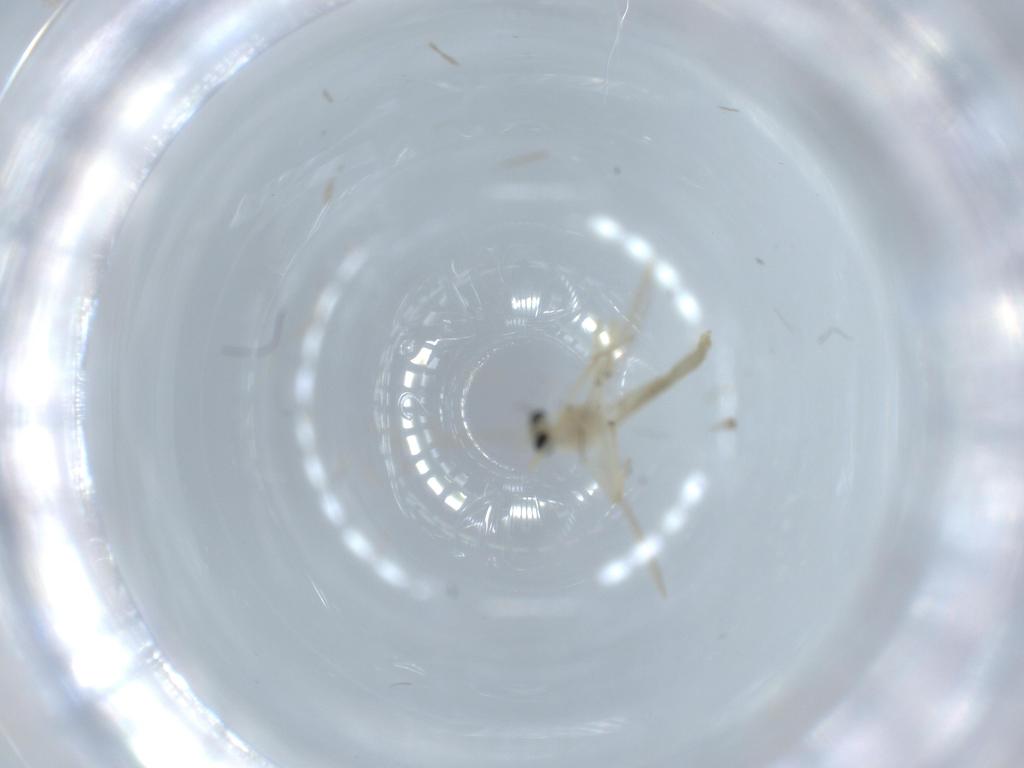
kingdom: Animalia
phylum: Arthropoda
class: Insecta
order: Diptera
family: Chironomidae
